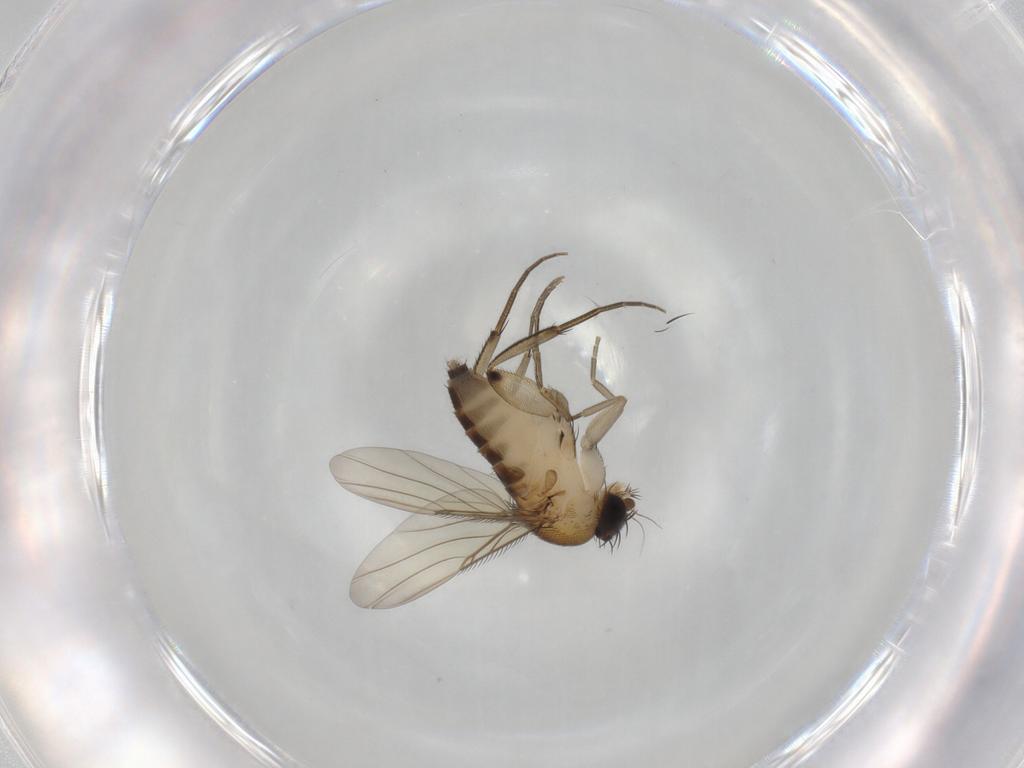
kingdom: Animalia
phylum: Arthropoda
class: Insecta
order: Diptera
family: Phoridae
